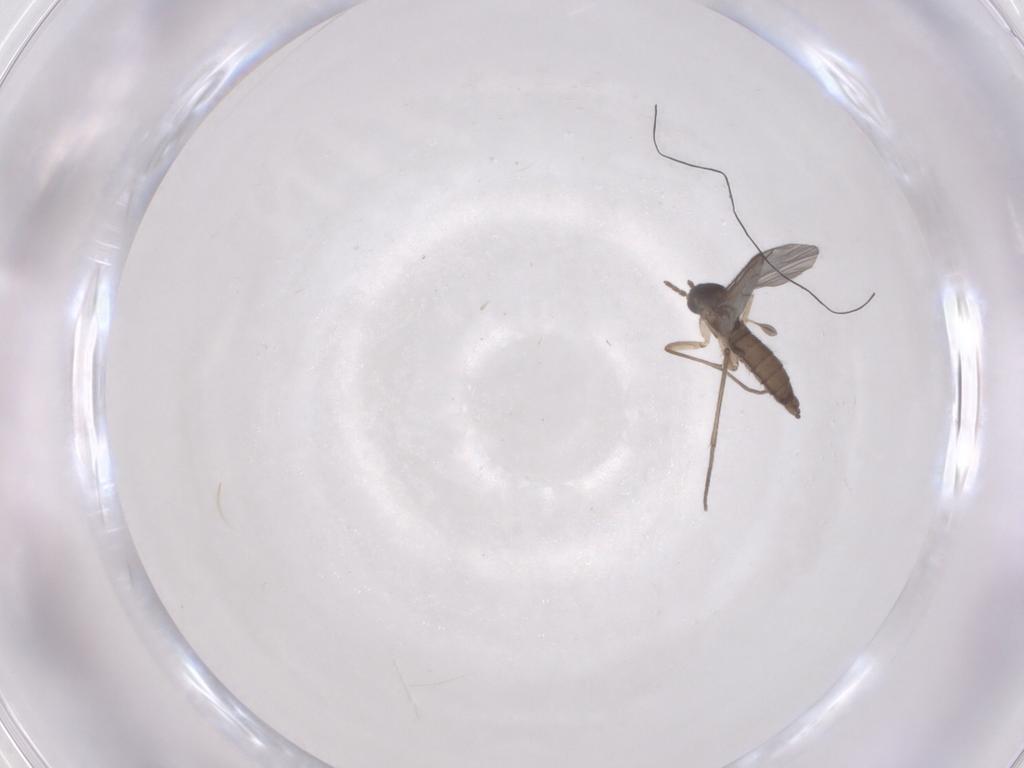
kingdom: Animalia
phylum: Arthropoda
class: Insecta
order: Diptera
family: Sciaridae
